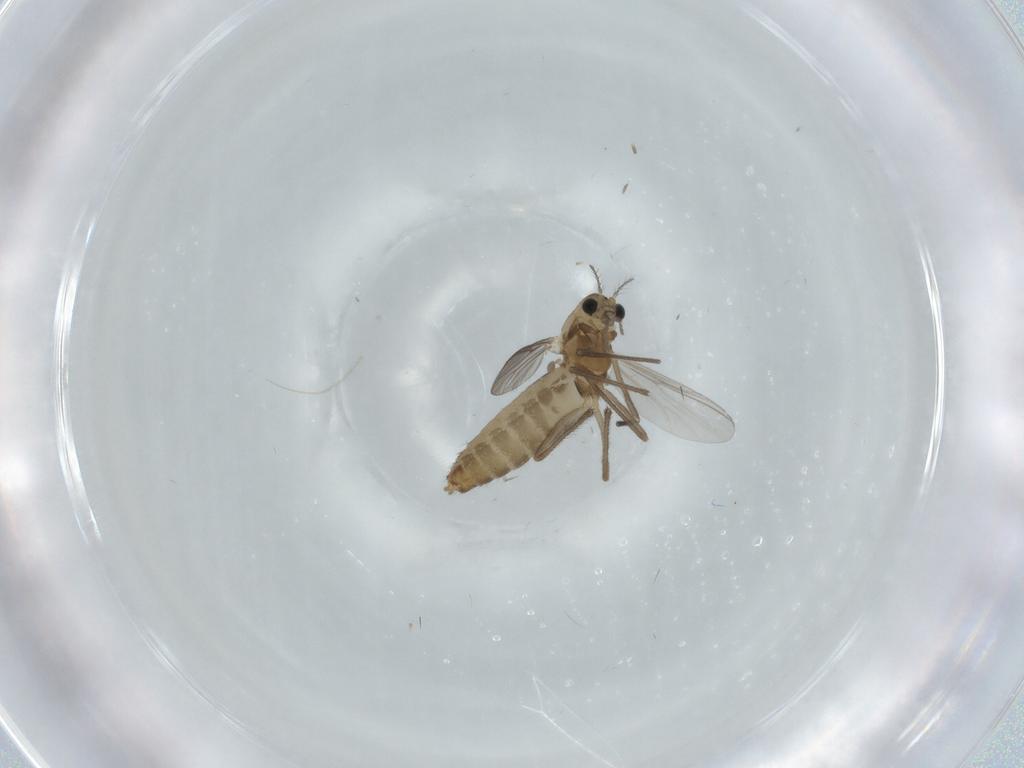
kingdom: Animalia
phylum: Arthropoda
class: Insecta
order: Diptera
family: Chironomidae
